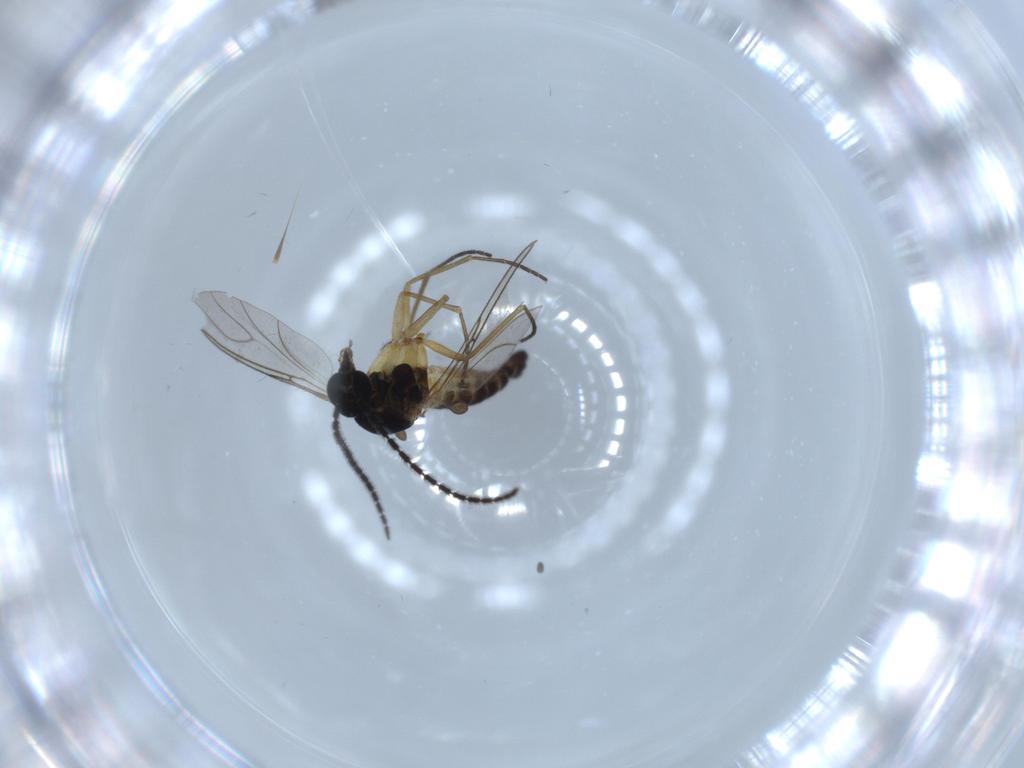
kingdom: Animalia
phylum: Arthropoda
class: Insecta
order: Diptera
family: Sciaridae
